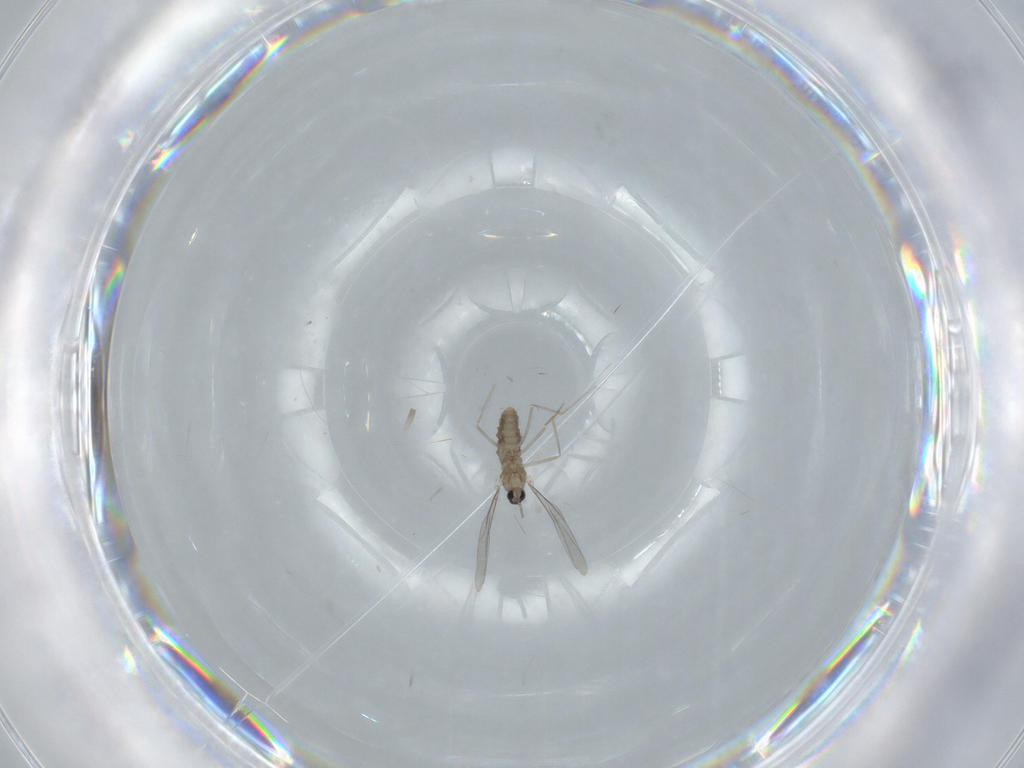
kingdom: Animalia
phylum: Arthropoda
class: Insecta
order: Diptera
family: Cecidomyiidae
